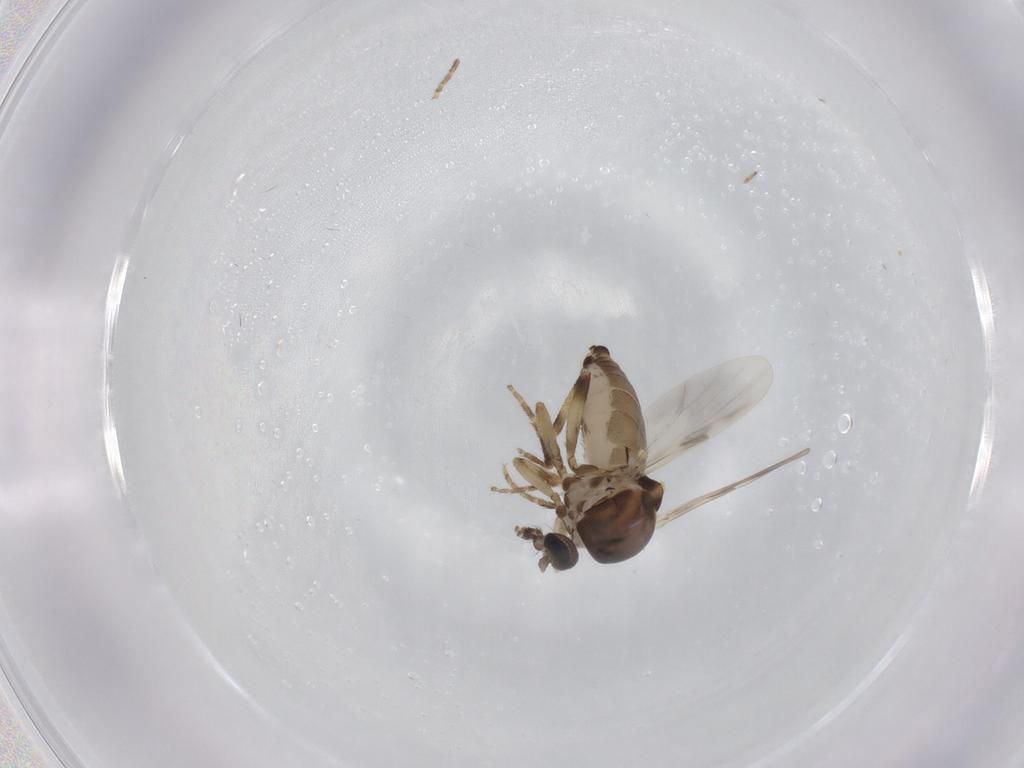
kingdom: Animalia
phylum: Arthropoda
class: Insecta
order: Diptera
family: Ceratopogonidae
